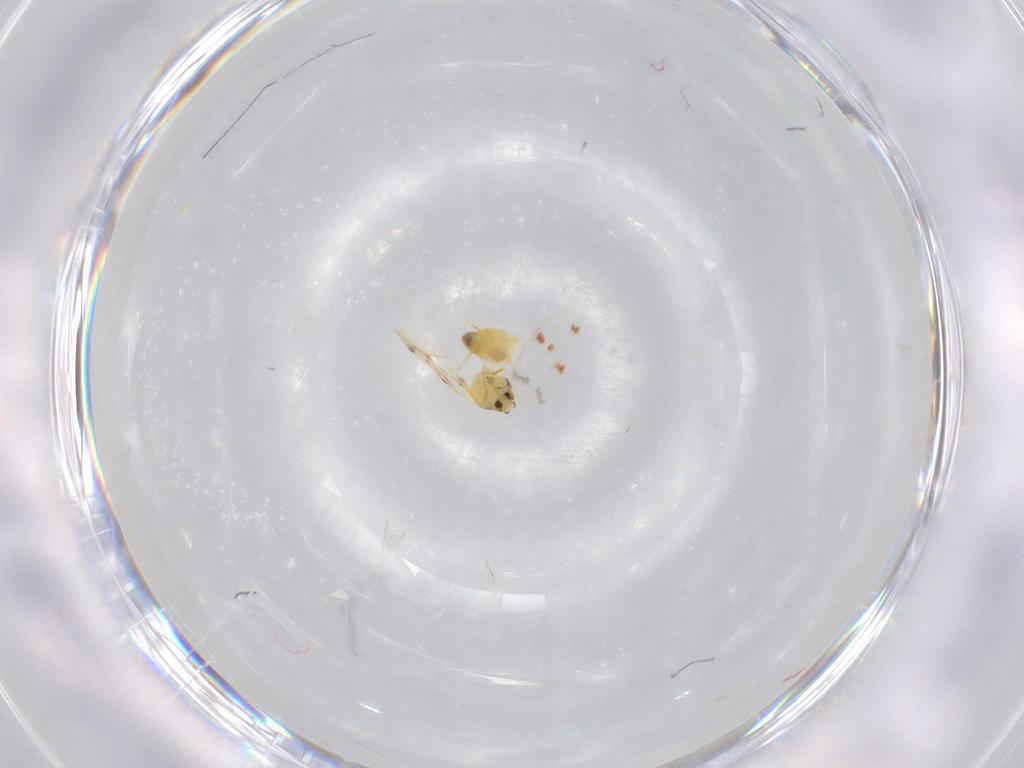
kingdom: Animalia
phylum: Arthropoda
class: Insecta
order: Hemiptera
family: Aleyrodidae
